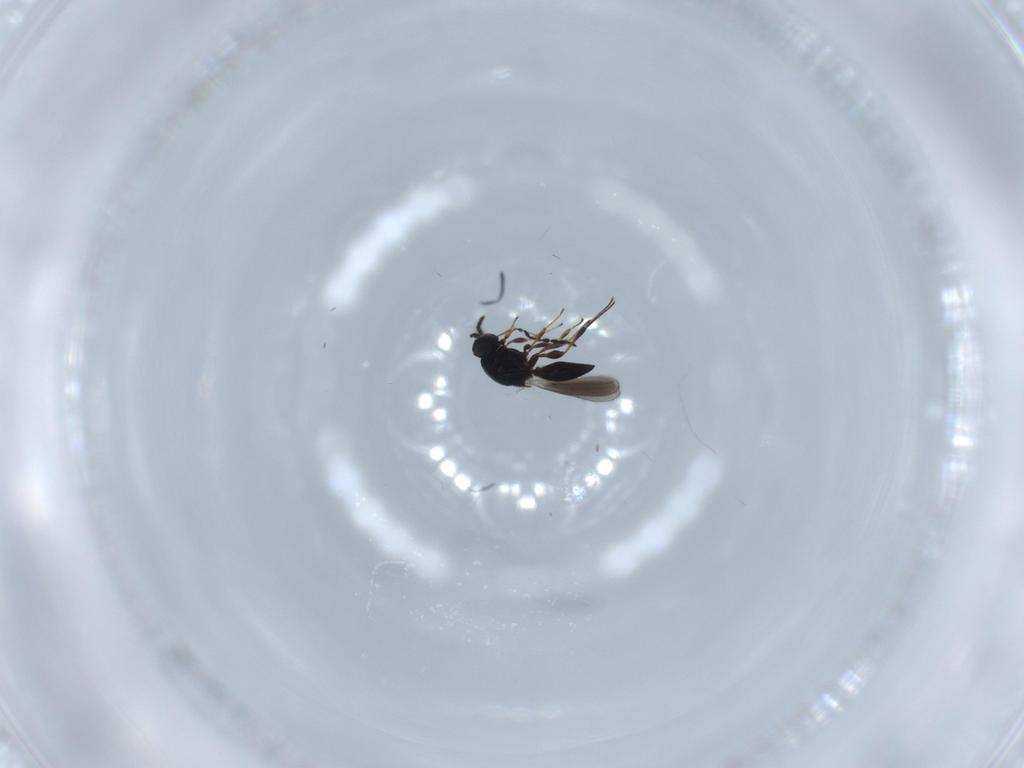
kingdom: Animalia
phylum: Arthropoda
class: Insecta
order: Hymenoptera
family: Platygastridae
